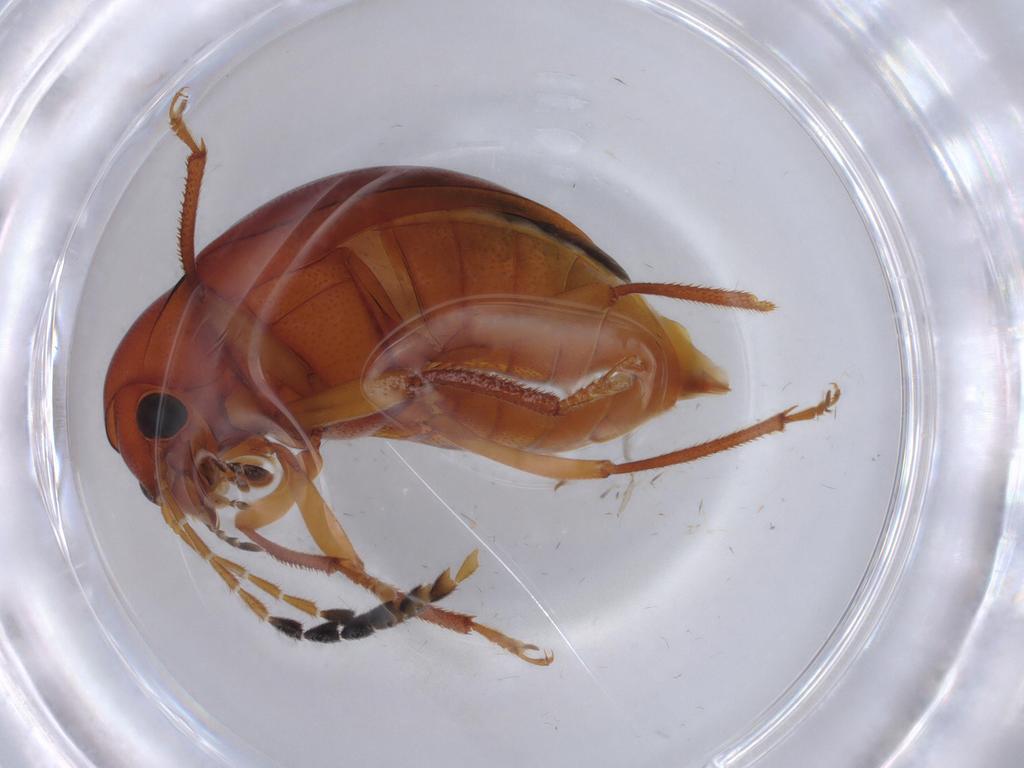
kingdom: Animalia
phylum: Arthropoda
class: Insecta
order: Coleoptera
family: Ptilodactylidae
